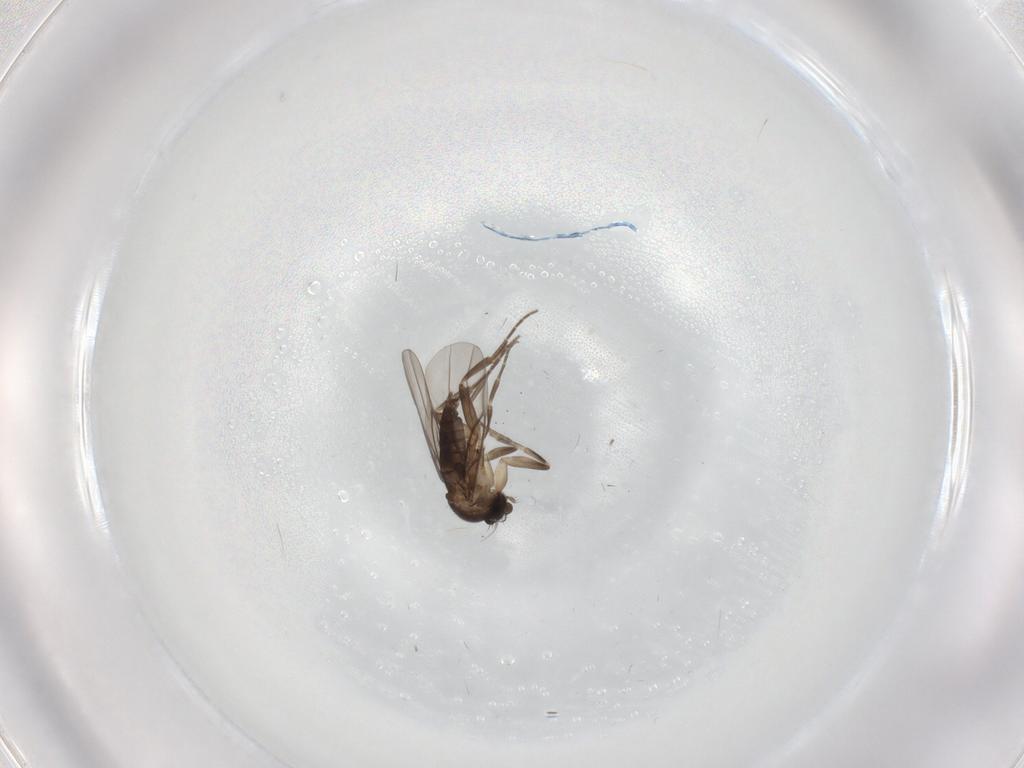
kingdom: Animalia
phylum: Arthropoda
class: Insecta
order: Diptera
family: Phoridae
